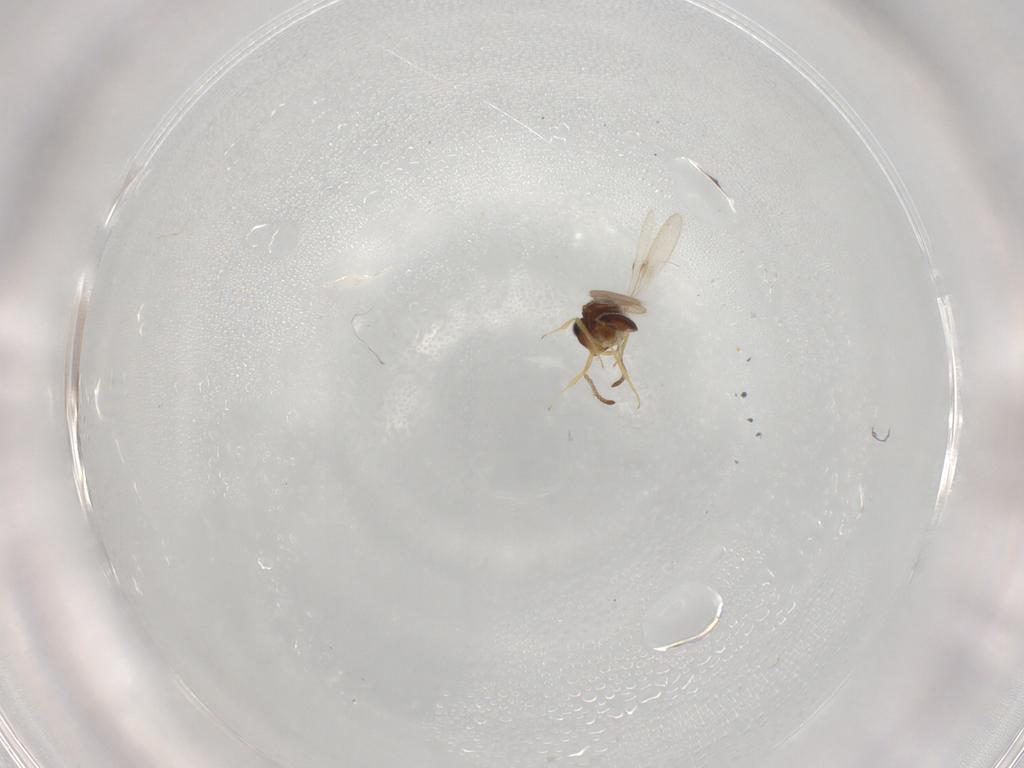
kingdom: Animalia
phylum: Arthropoda
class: Insecta
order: Hymenoptera
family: Scelionidae
